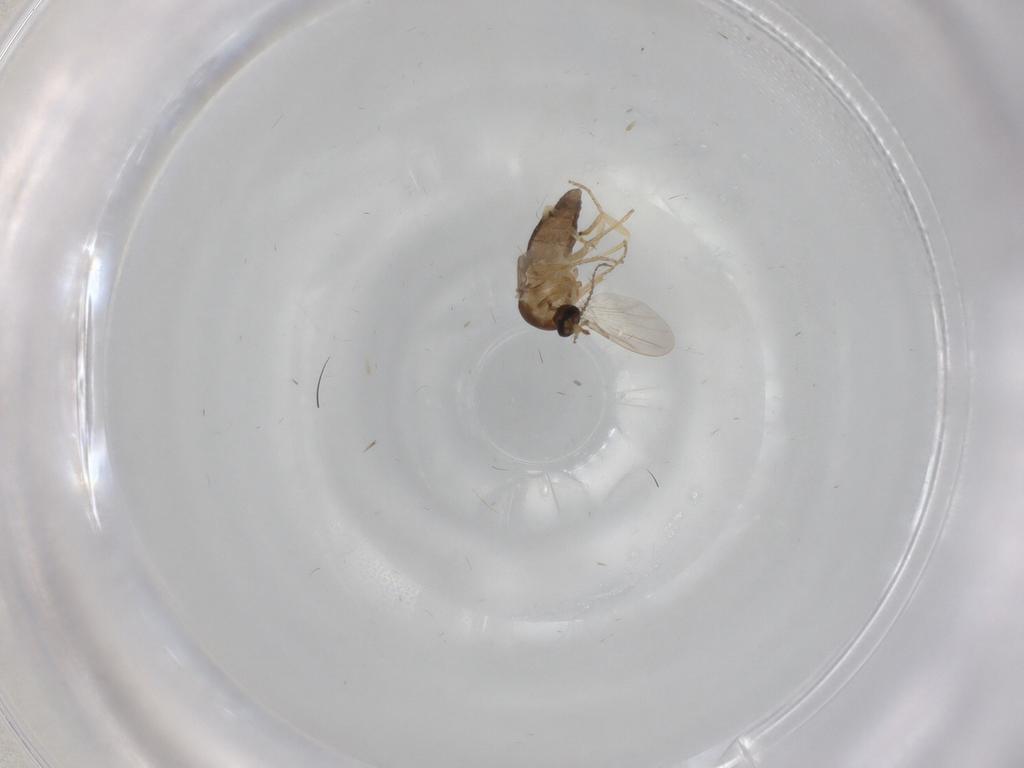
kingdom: Animalia
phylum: Arthropoda
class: Insecta
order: Diptera
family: Ceratopogonidae
